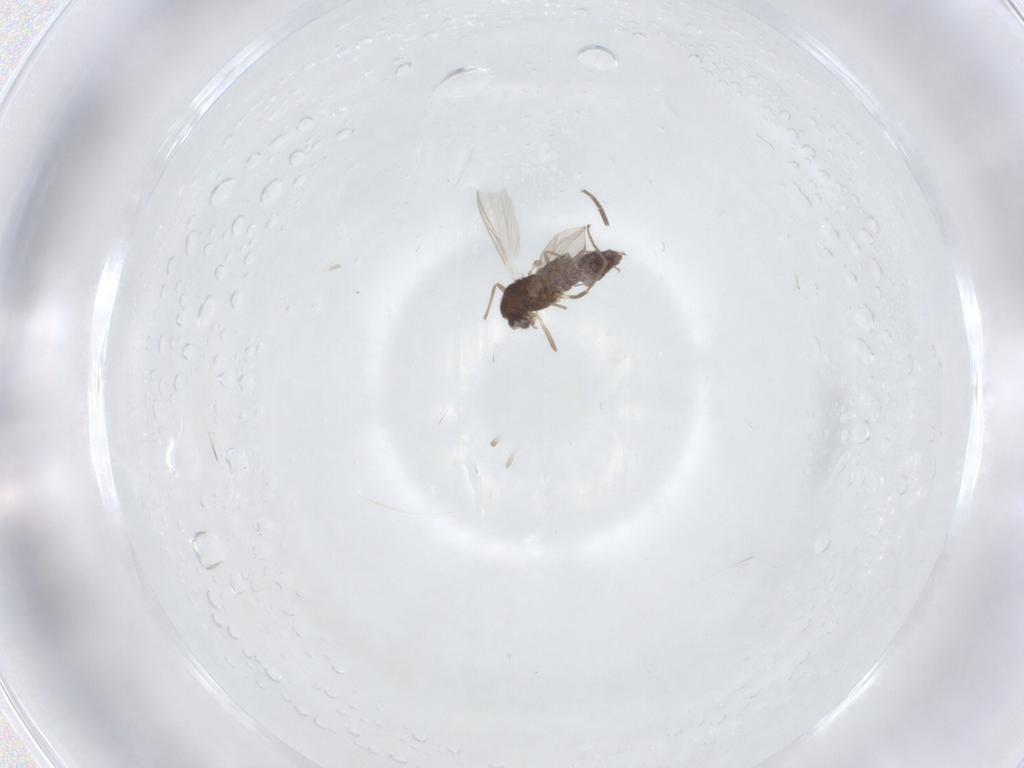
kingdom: Animalia
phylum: Arthropoda
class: Insecta
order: Diptera
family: Chironomidae
